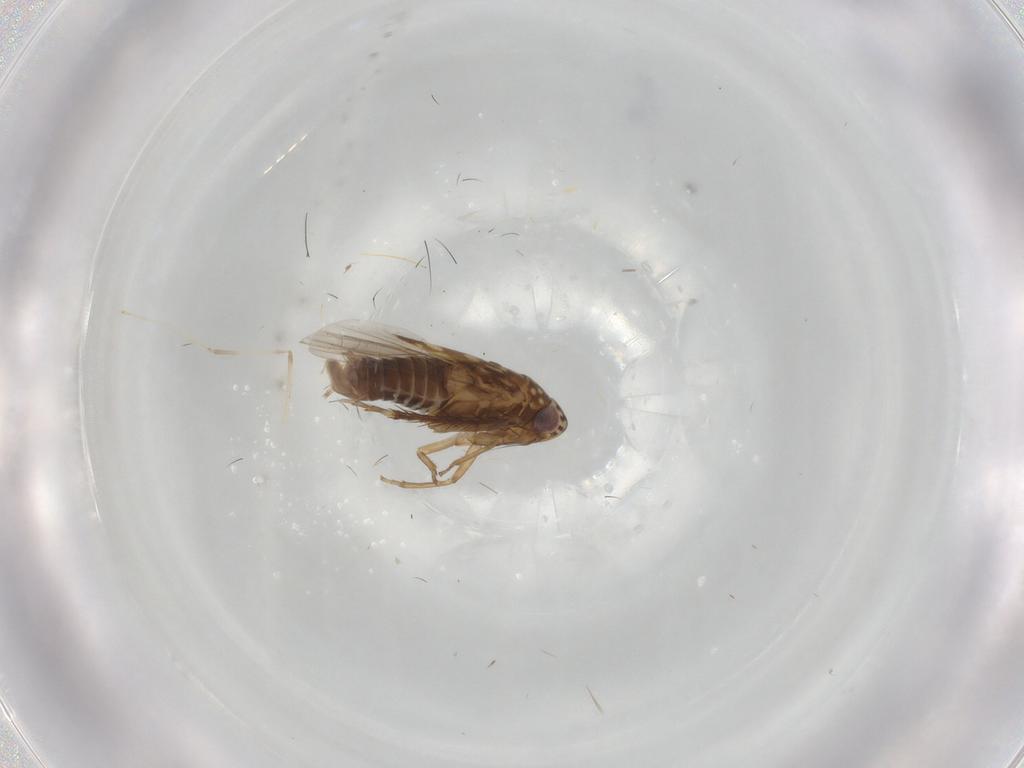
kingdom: Animalia
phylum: Arthropoda
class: Insecta
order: Hemiptera
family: Cicadellidae
